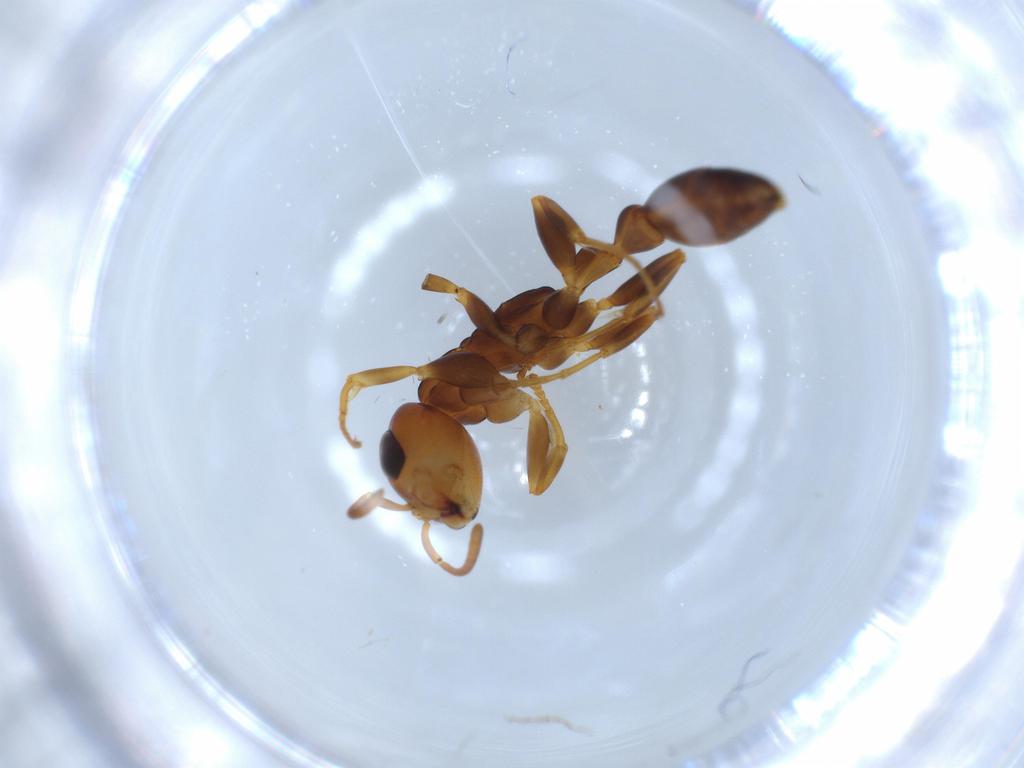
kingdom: Animalia
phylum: Arthropoda
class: Insecta
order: Hymenoptera
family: Formicidae
